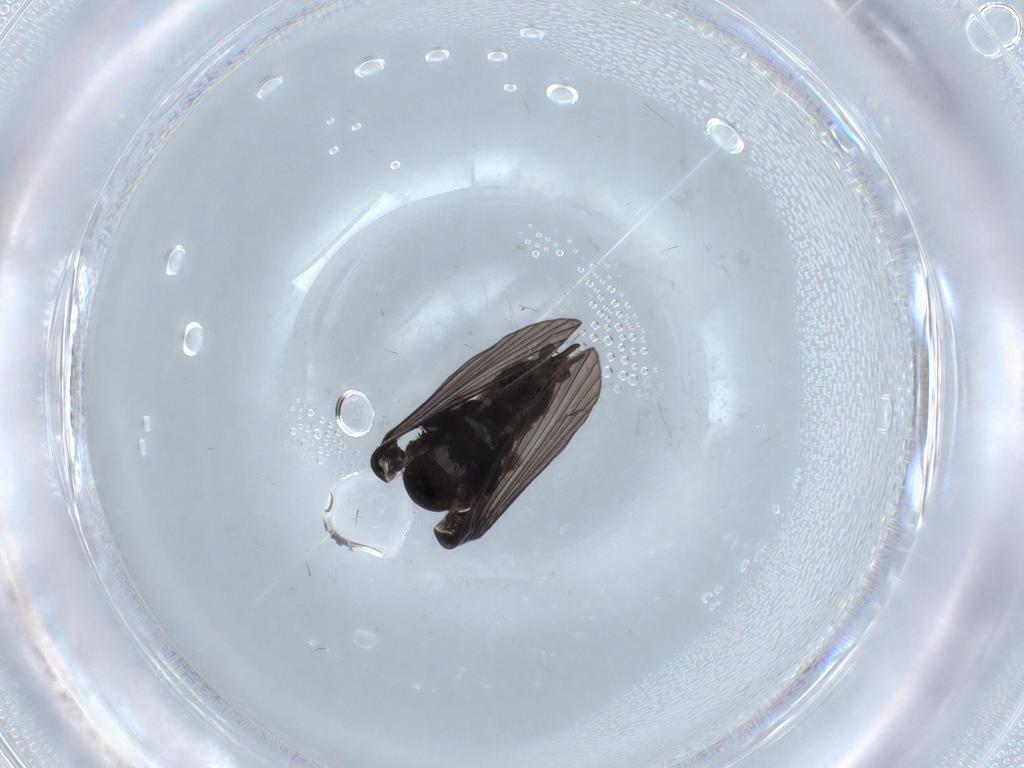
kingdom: Animalia
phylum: Arthropoda
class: Insecta
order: Diptera
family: Chironomidae
